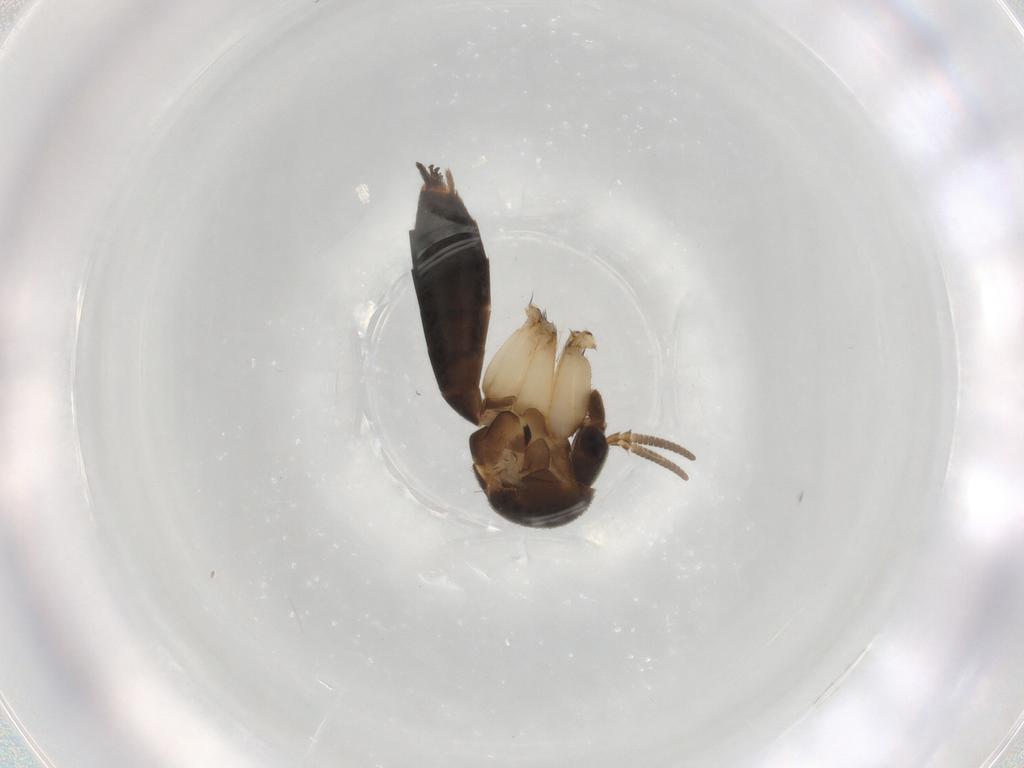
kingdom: Animalia
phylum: Arthropoda
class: Insecta
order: Diptera
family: Mycetophilidae
